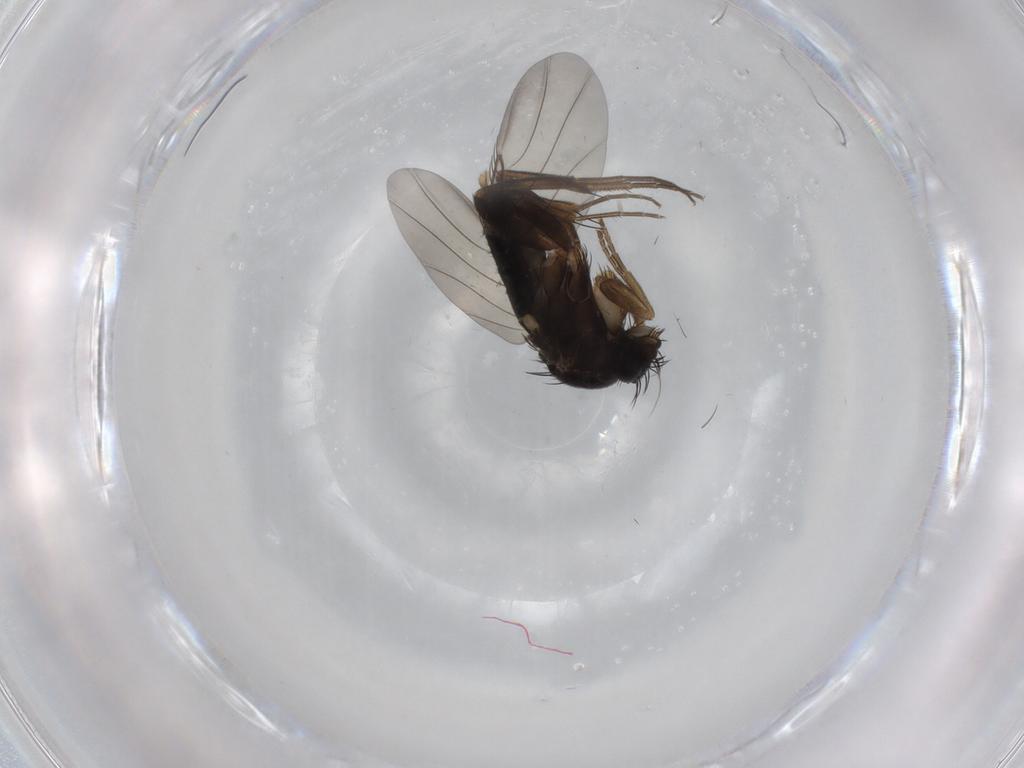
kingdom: Animalia
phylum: Arthropoda
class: Insecta
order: Diptera
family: Phoridae
